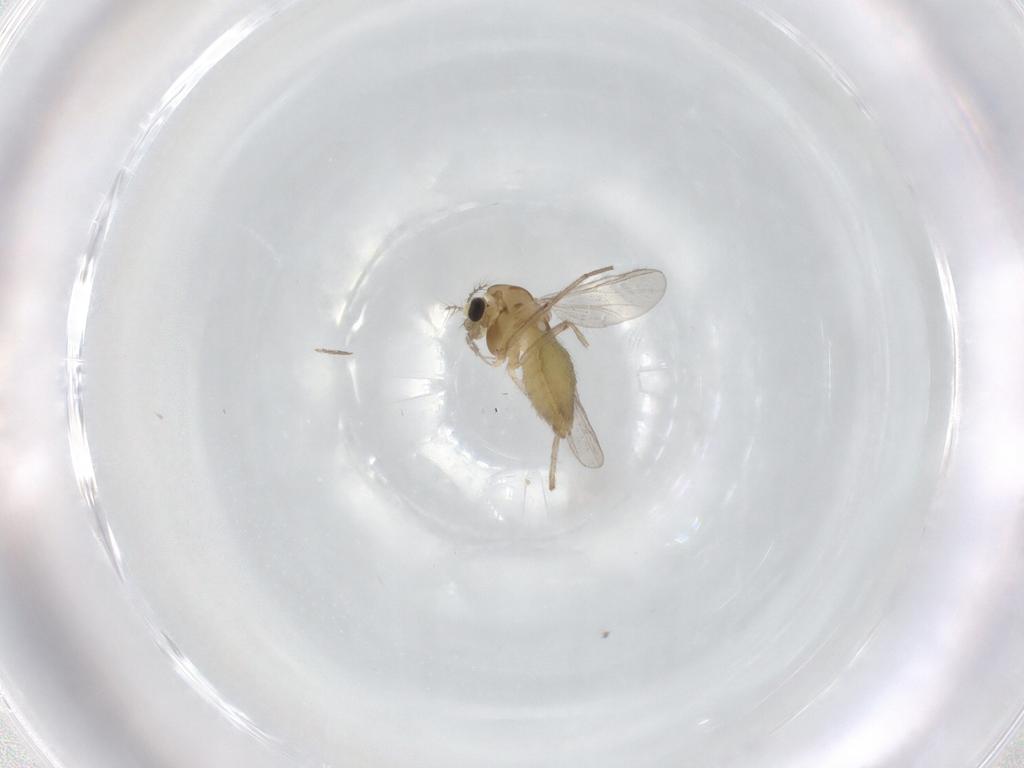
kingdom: Animalia
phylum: Arthropoda
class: Insecta
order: Diptera
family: Chironomidae
